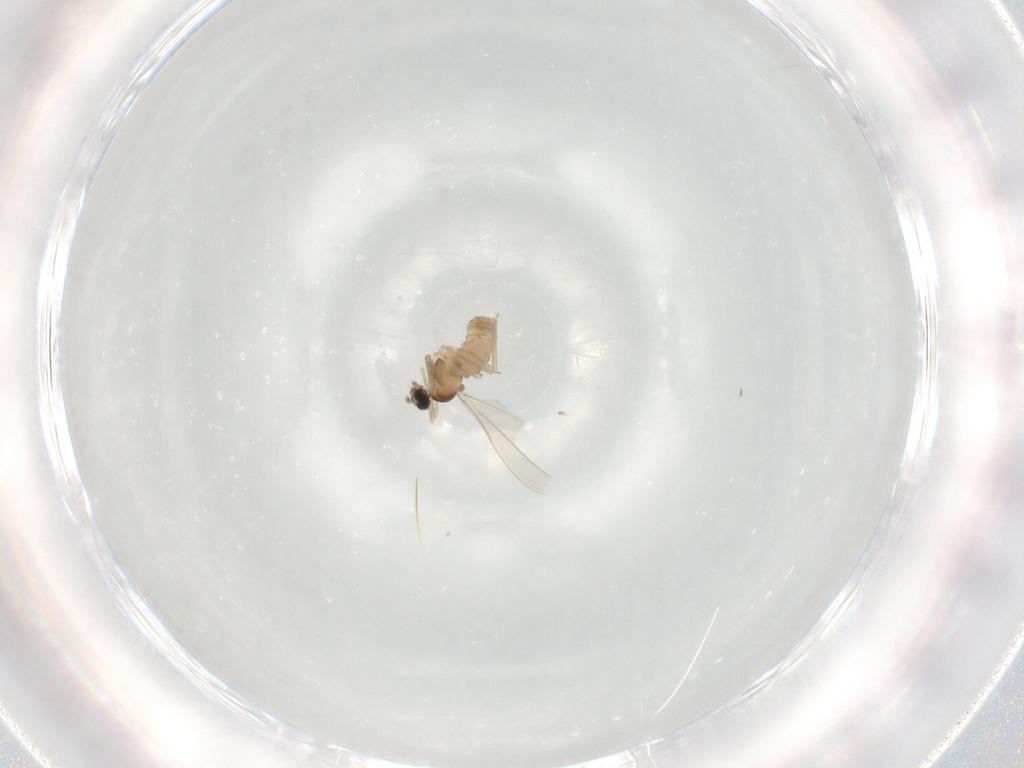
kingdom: Animalia
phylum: Arthropoda
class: Insecta
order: Diptera
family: Cecidomyiidae
